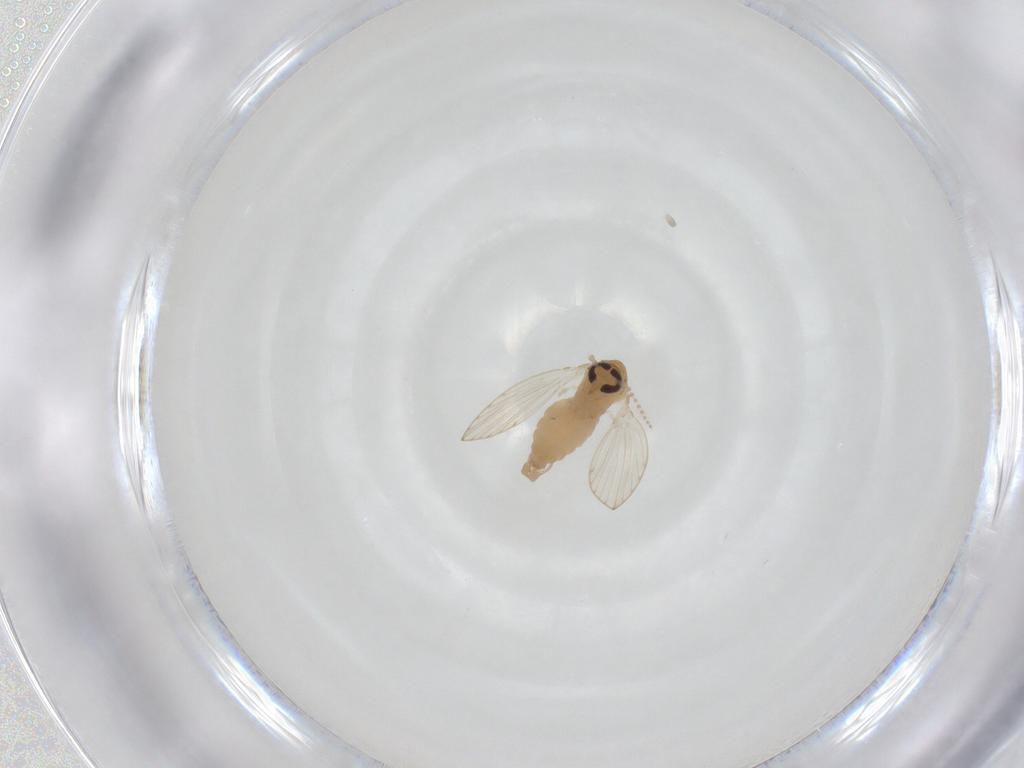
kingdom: Animalia
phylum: Arthropoda
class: Insecta
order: Diptera
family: Psychodidae
